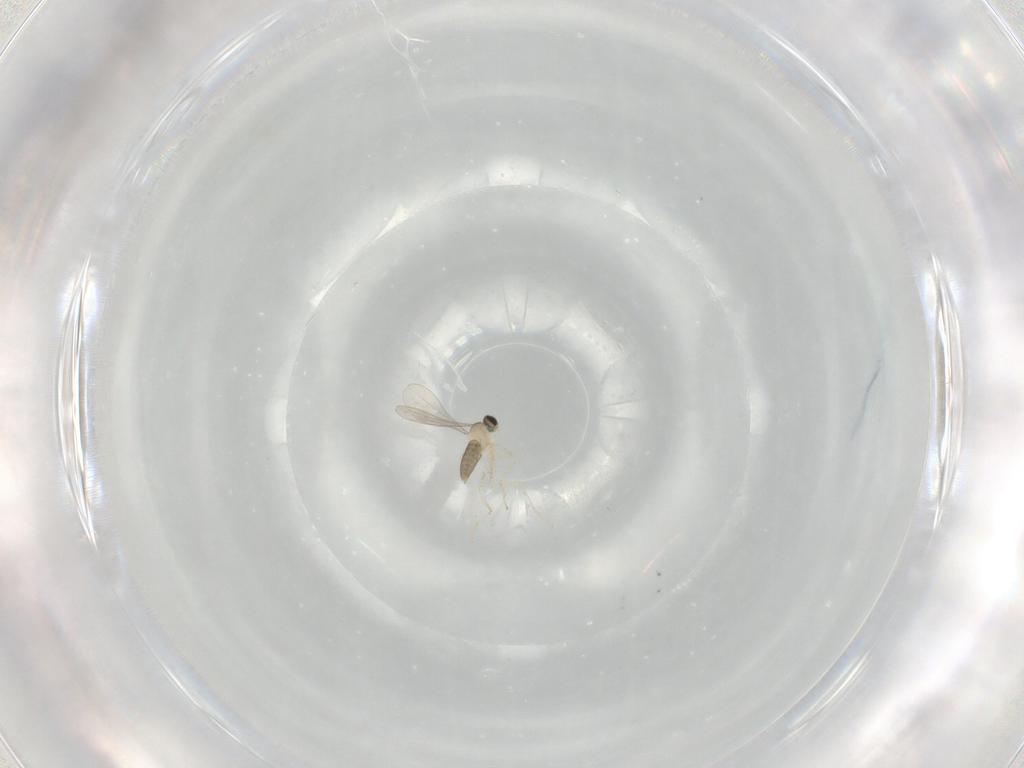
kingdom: Animalia
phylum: Arthropoda
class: Insecta
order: Diptera
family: Cecidomyiidae
